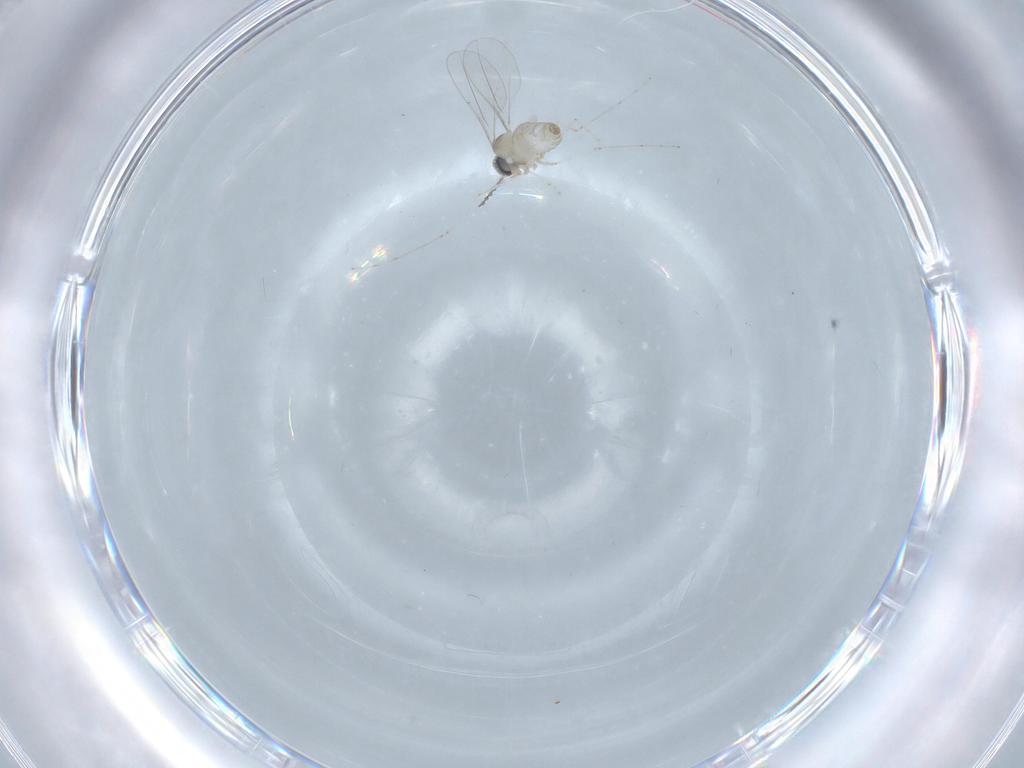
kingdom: Animalia
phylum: Arthropoda
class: Insecta
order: Diptera
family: Cecidomyiidae
